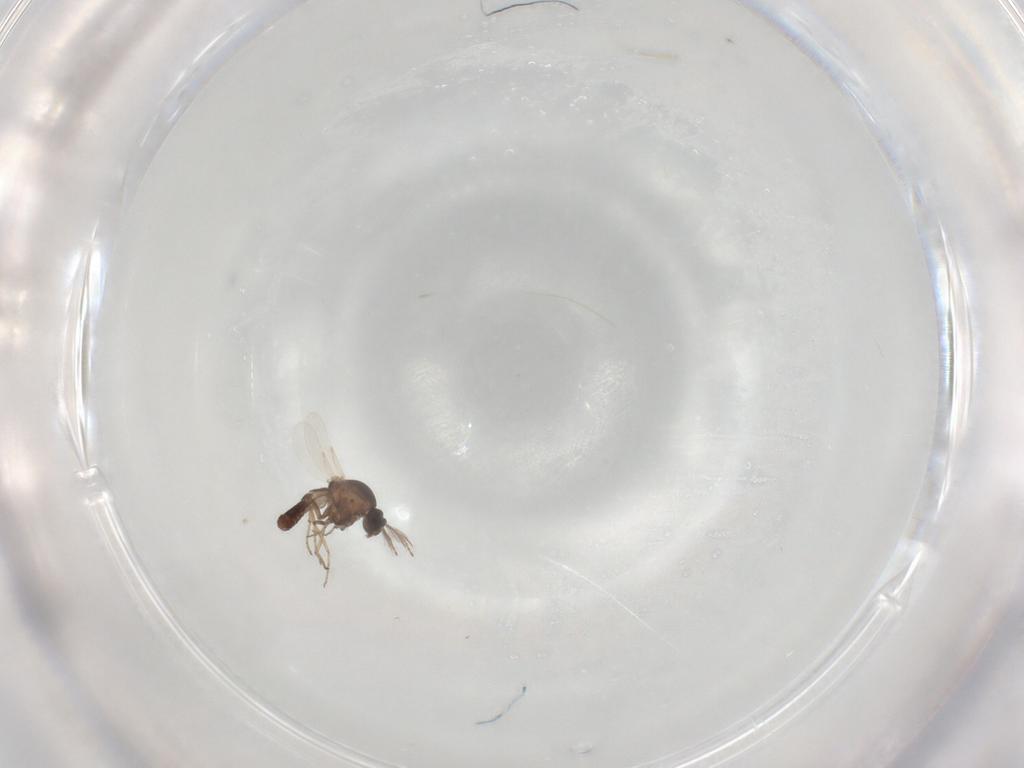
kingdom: Animalia
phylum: Arthropoda
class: Insecta
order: Diptera
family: Ceratopogonidae
